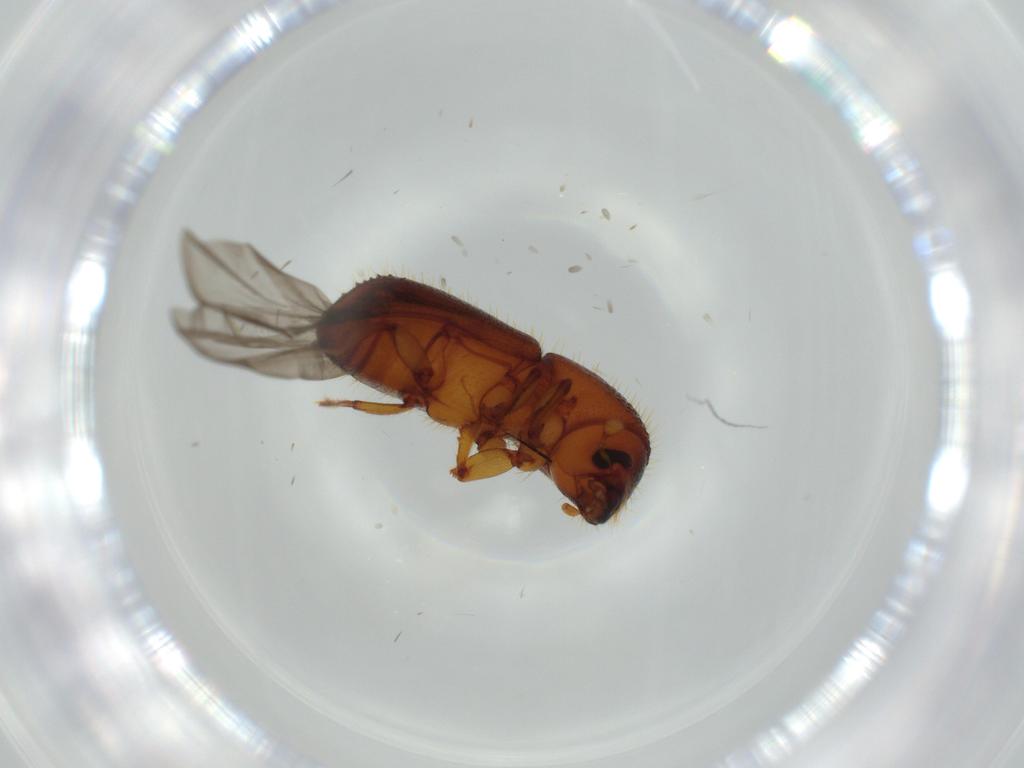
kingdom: Animalia
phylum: Arthropoda
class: Insecta
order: Coleoptera
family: Curculionidae
